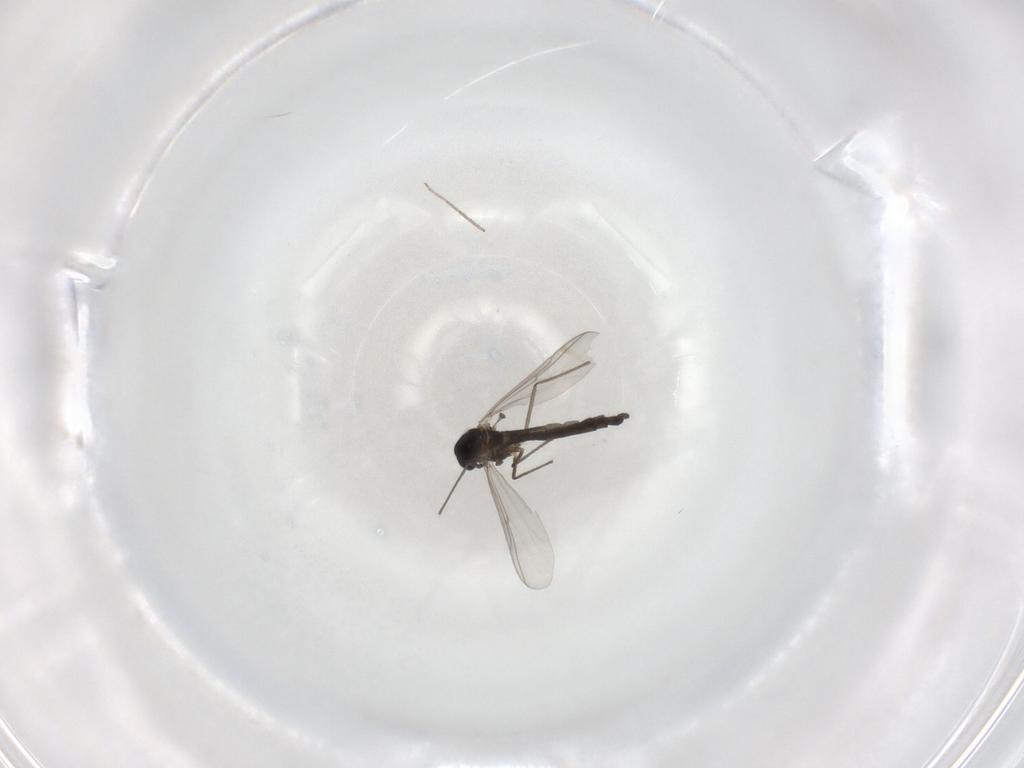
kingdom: Animalia
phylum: Arthropoda
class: Insecta
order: Diptera
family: Chironomidae
